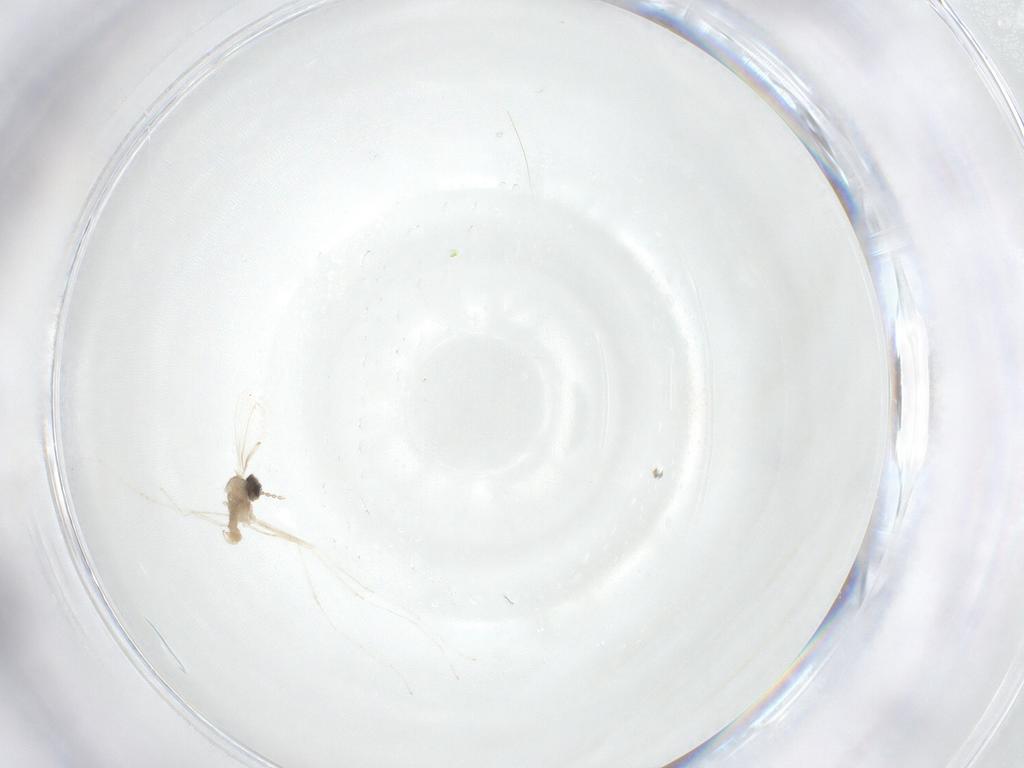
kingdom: Animalia
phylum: Arthropoda
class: Insecta
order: Diptera
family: Cecidomyiidae
